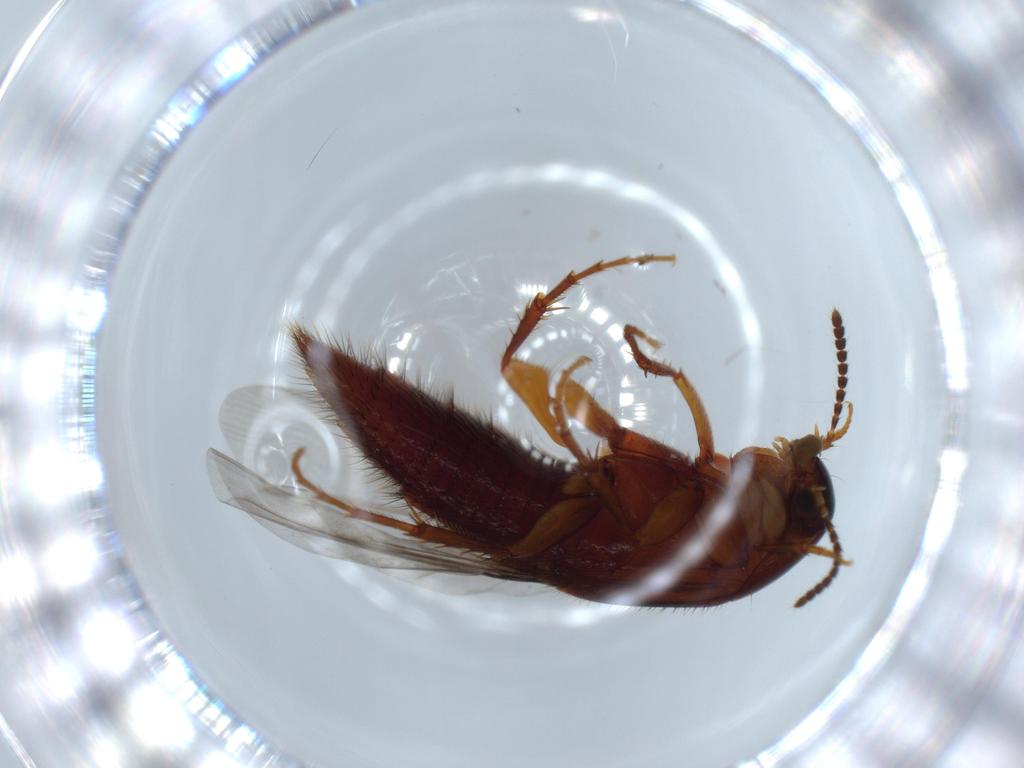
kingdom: Animalia
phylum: Arthropoda
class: Insecta
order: Coleoptera
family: Staphylinidae
